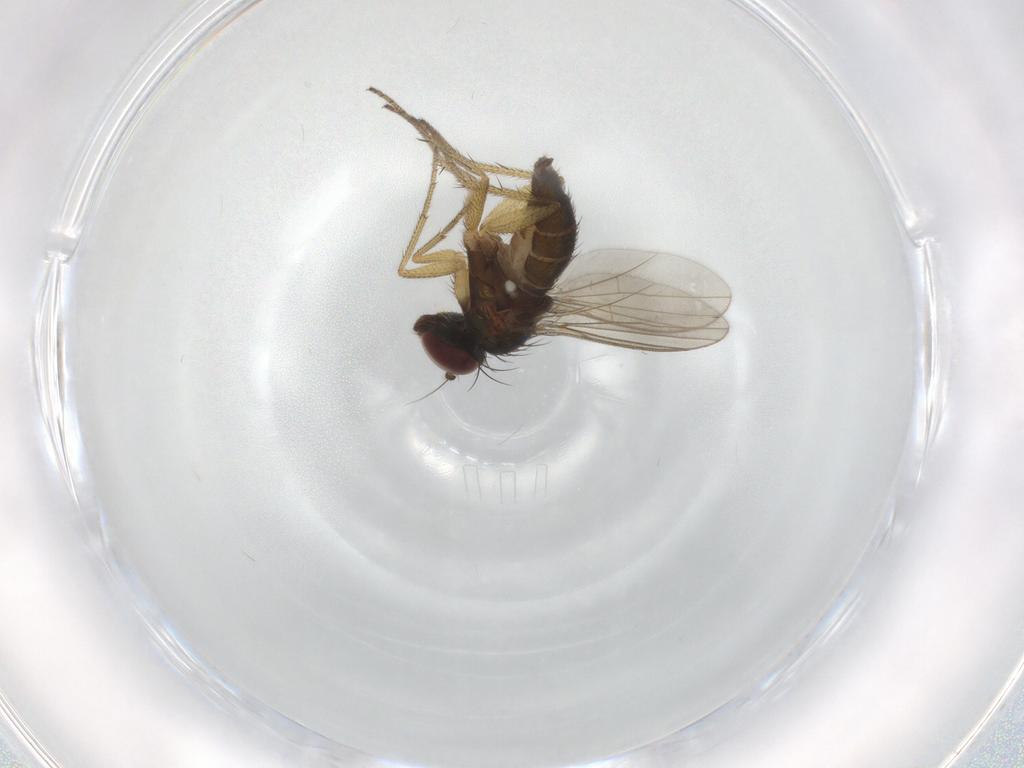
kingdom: Animalia
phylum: Arthropoda
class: Insecta
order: Diptera
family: Chironomidae
